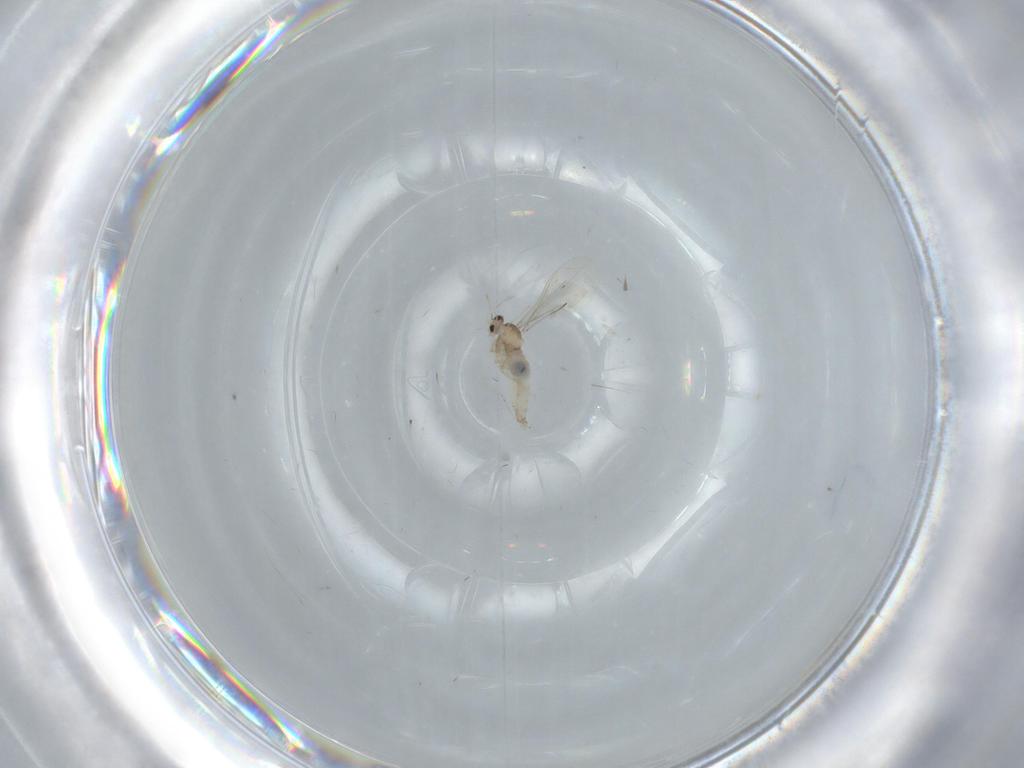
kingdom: Animalia
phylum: Arthropoda
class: Insecta
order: Diptera
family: Cecidomyiidae
